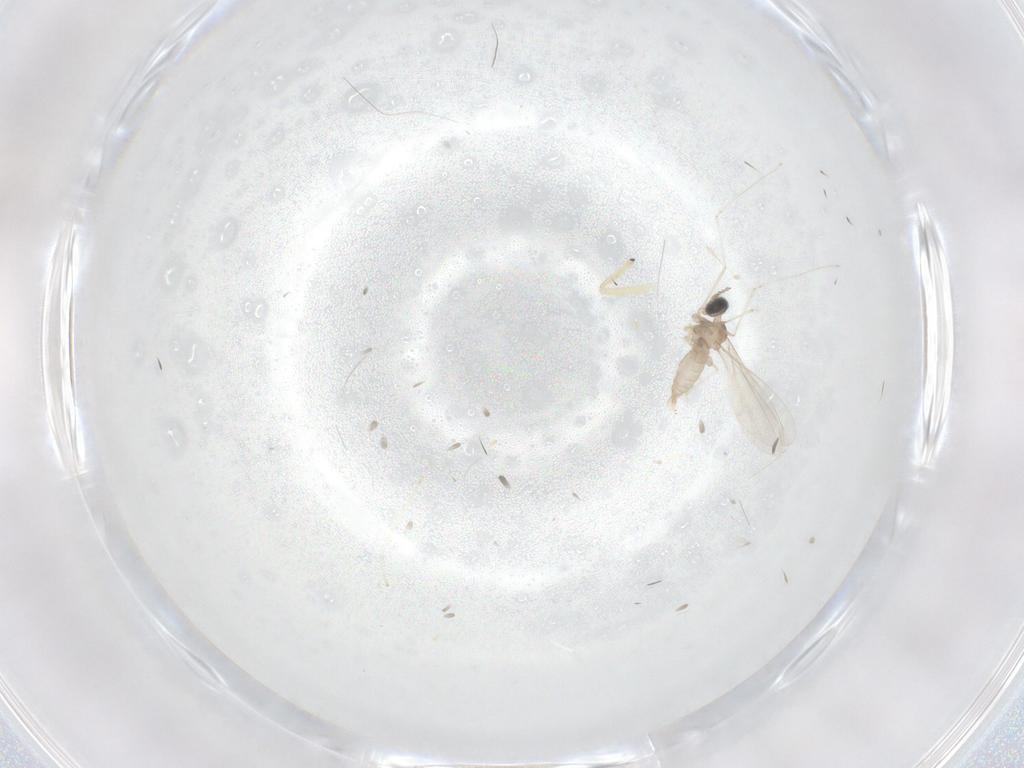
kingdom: Animalia
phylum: Arthropoda
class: Insecta
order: Diptera
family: Cecidomyiidae
